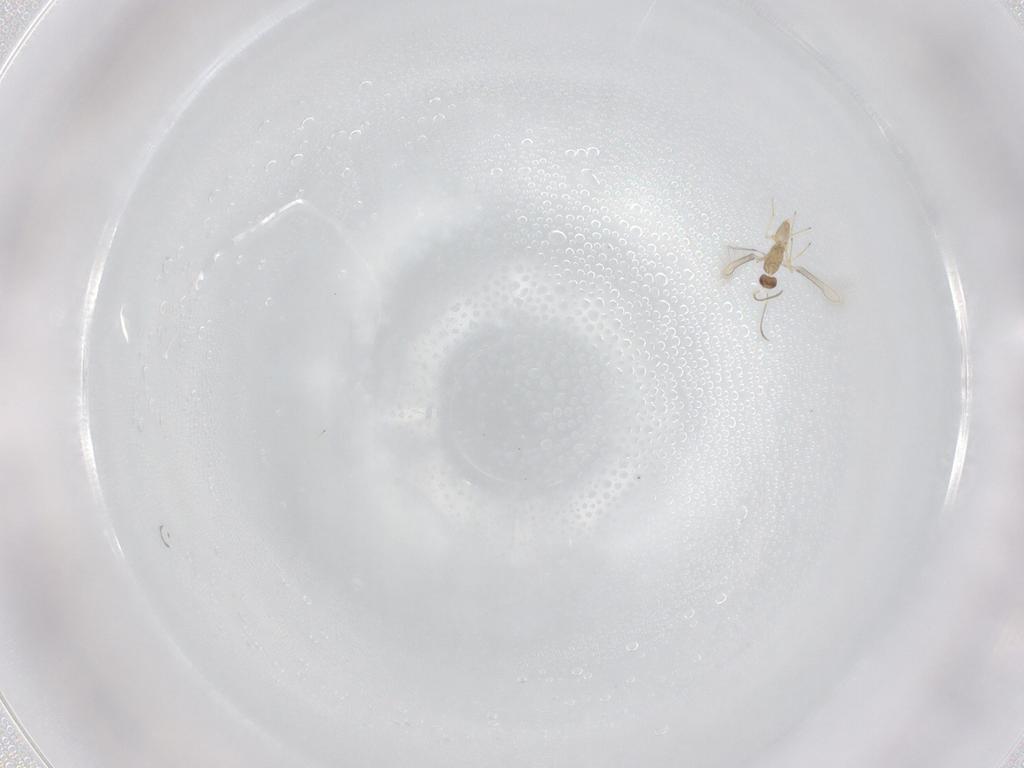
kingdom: Animalia
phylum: Arthropoda
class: Insecta
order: Hymenoptera
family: Mymaridae
